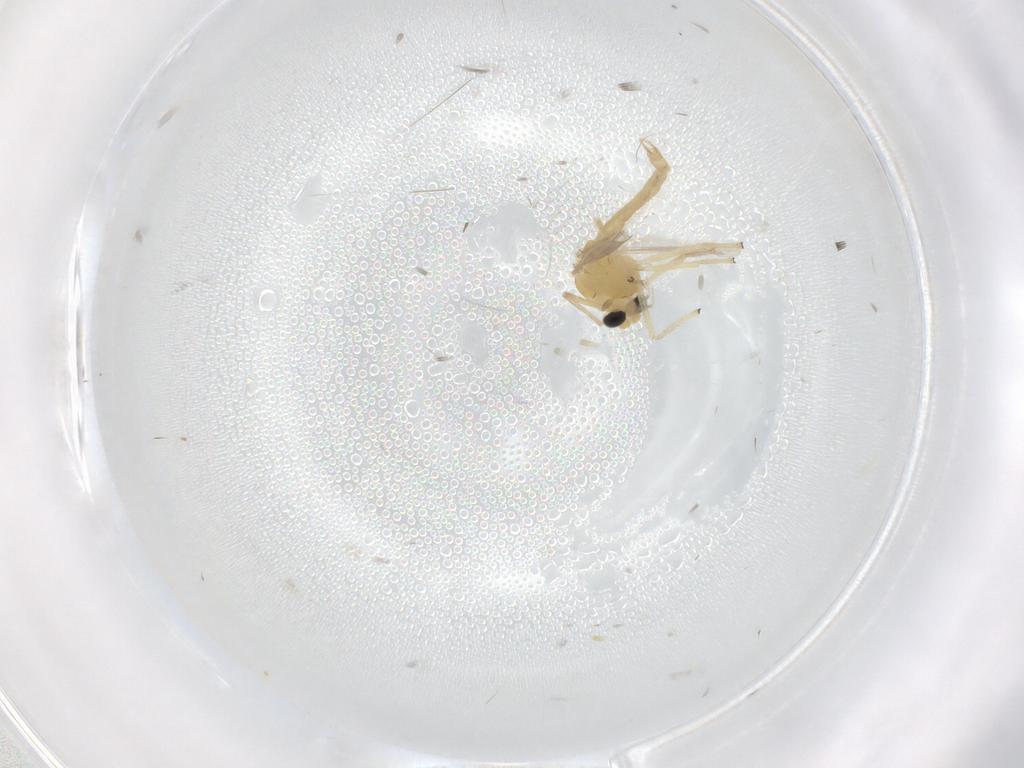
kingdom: Animalia
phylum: Arthropoda
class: Insecta
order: Diptera
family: Chironomidae
